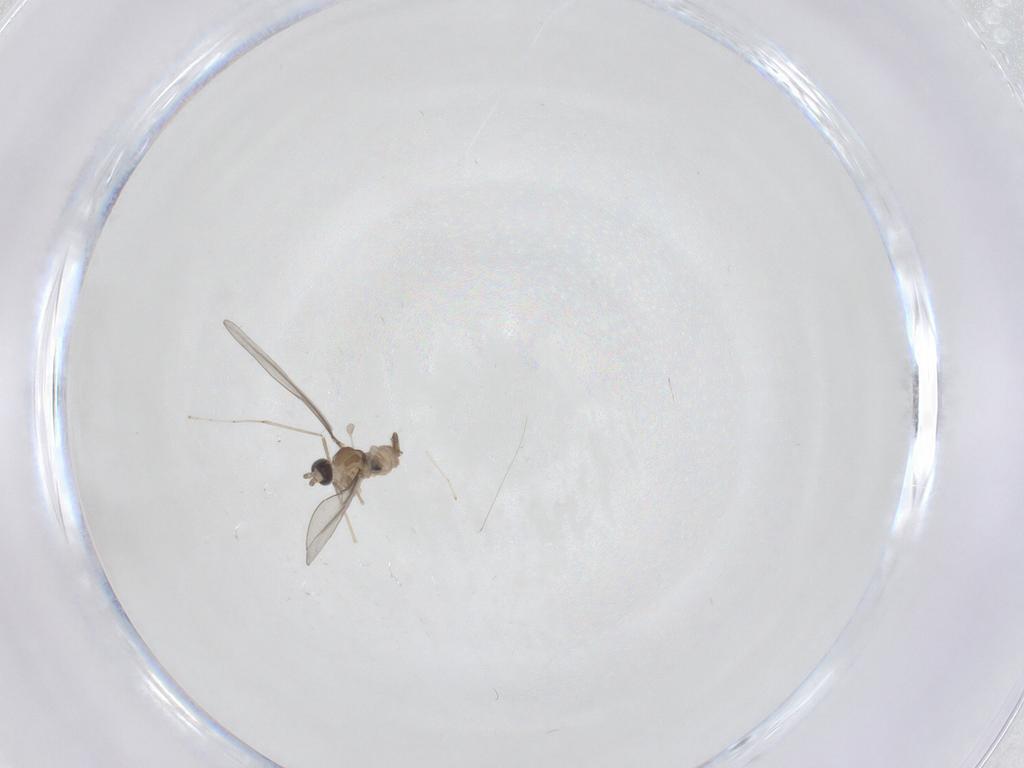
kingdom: Animalia
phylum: Arthropoda
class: Insecta
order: Diptera
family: Cecidomyiidae
